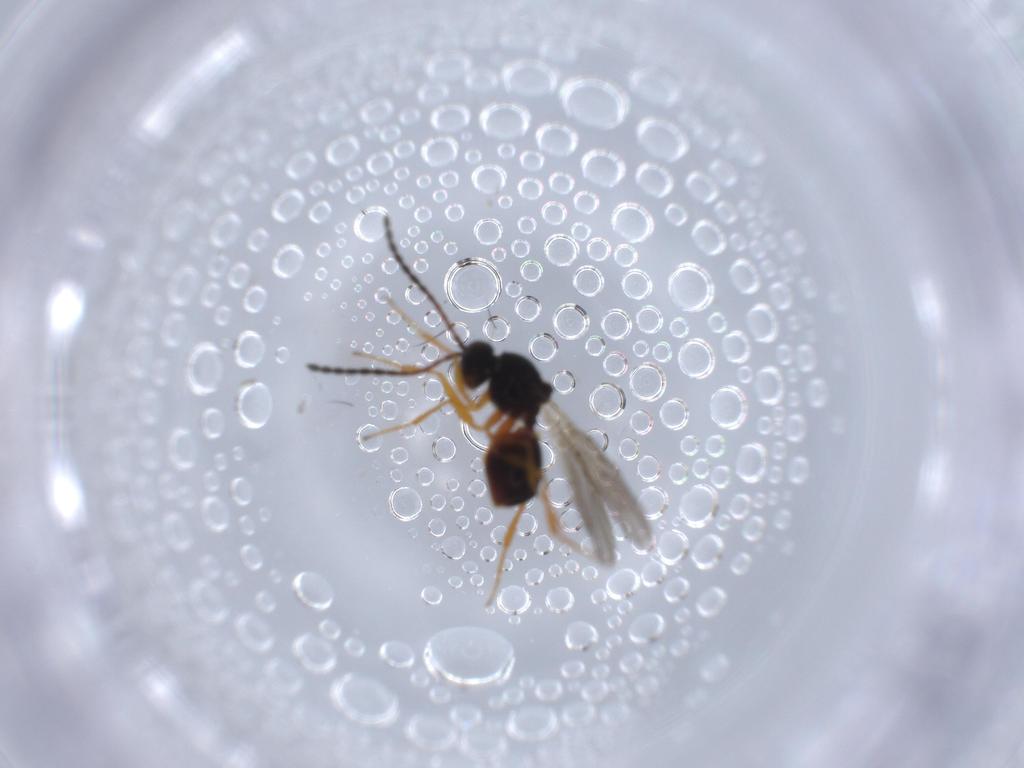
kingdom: Animalia
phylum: Arthropoda
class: Insecta
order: Hymenoptera
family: Figitidae
